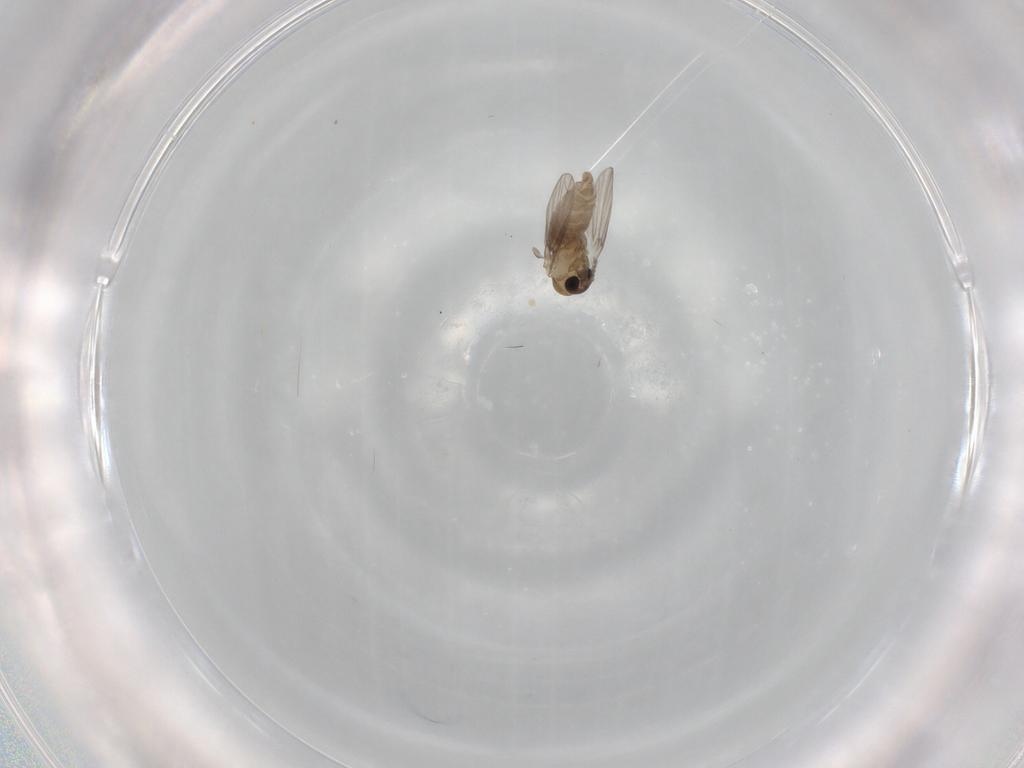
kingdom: Animalia
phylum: Arthropoda
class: Insecta
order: Diptera
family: Psychodidae
